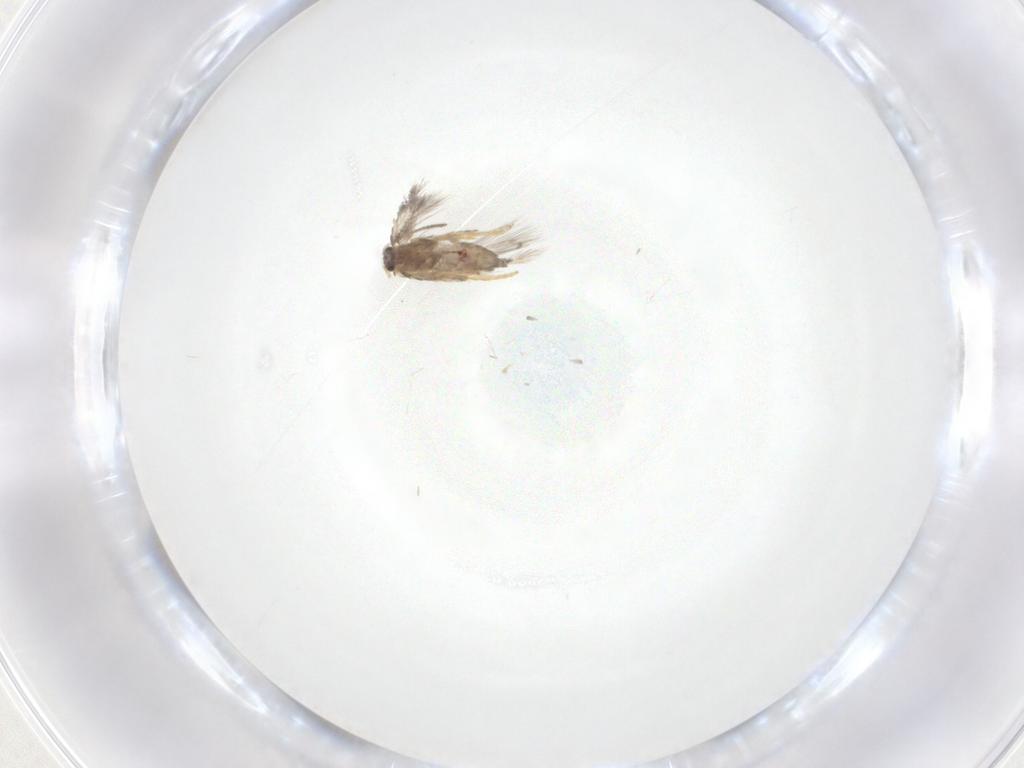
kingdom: Animalia
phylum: Arthropoda
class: Insecta
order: Lepidoptera
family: Nepticulidae
